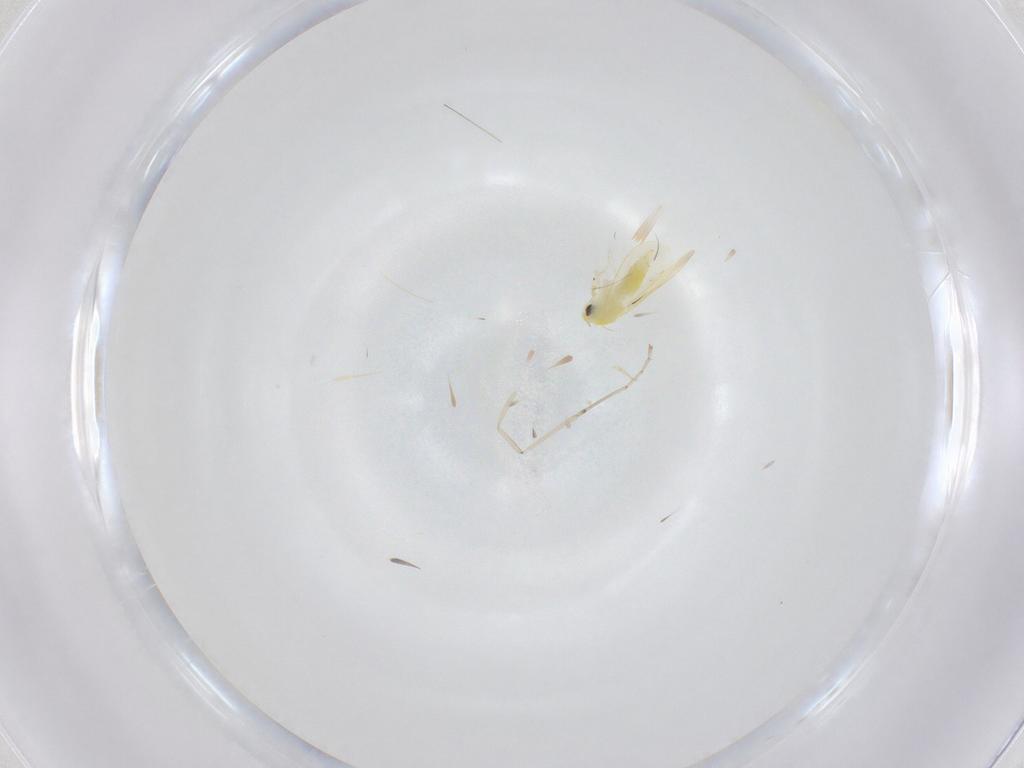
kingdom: Animalia
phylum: Arthropoda
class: Insecta
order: Hemiptera
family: Aleyrodidae
